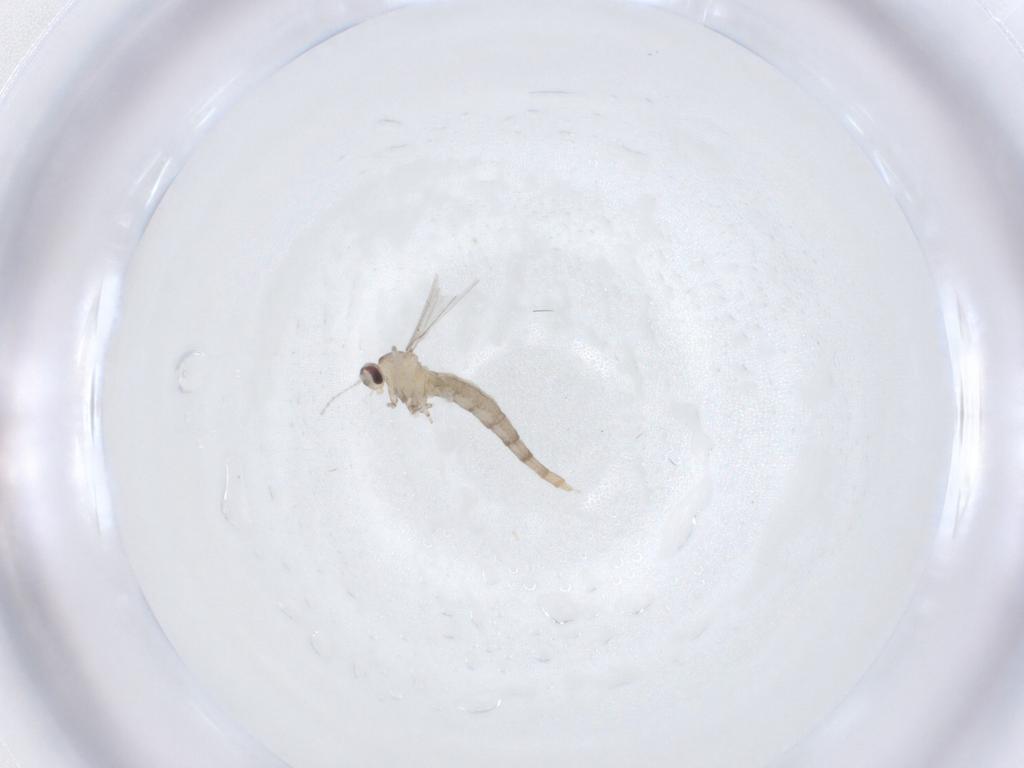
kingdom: Animalia
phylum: Arthropoda
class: Insecta
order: Diptera
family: Cecidomyiidae
